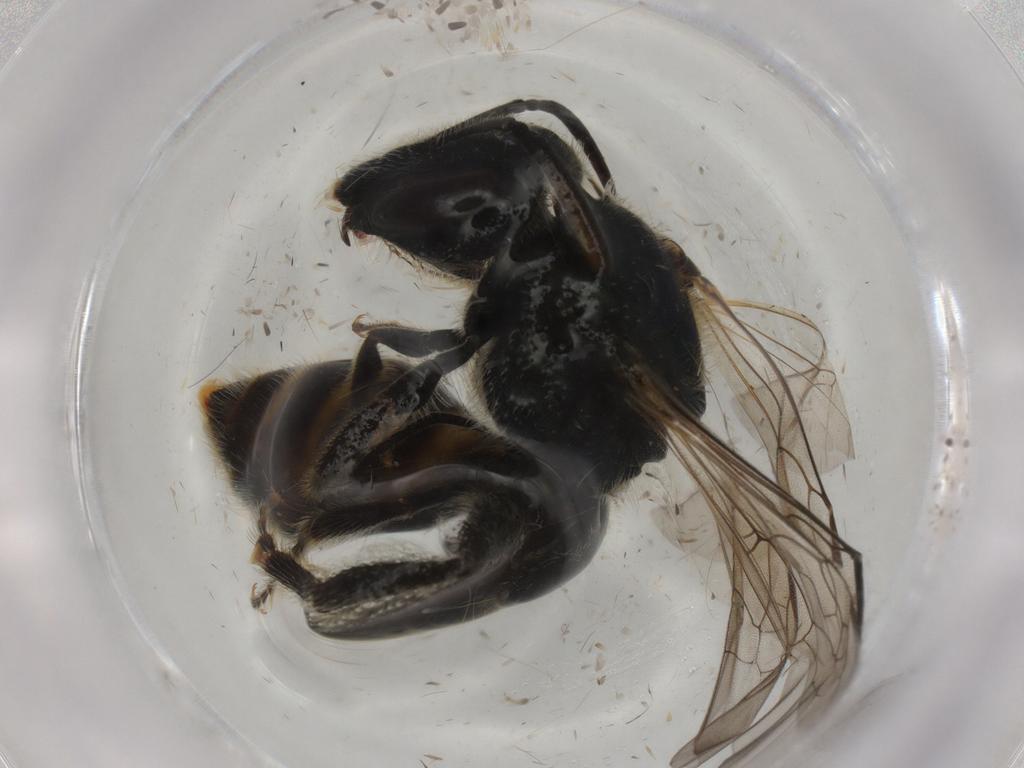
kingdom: Animalia
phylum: Arthropoda
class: Insecta
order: Hymenoptera
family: Halictidae
